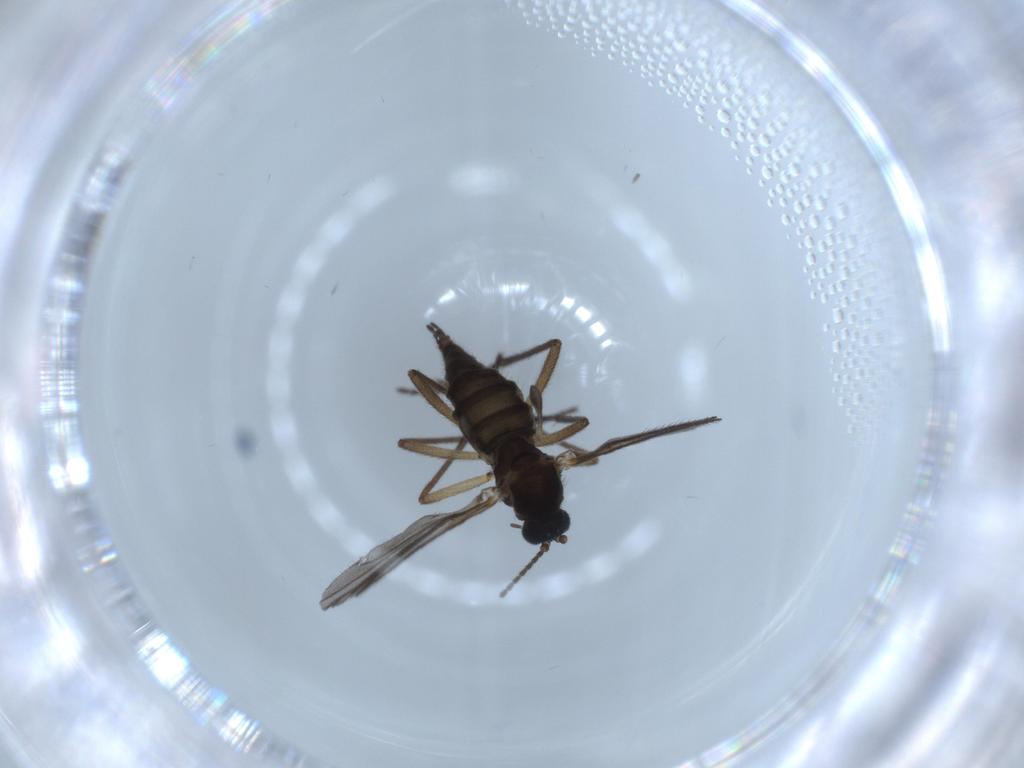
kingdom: Animalia
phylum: Arthropoda
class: Insecta
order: Diptera
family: Sciaridae
